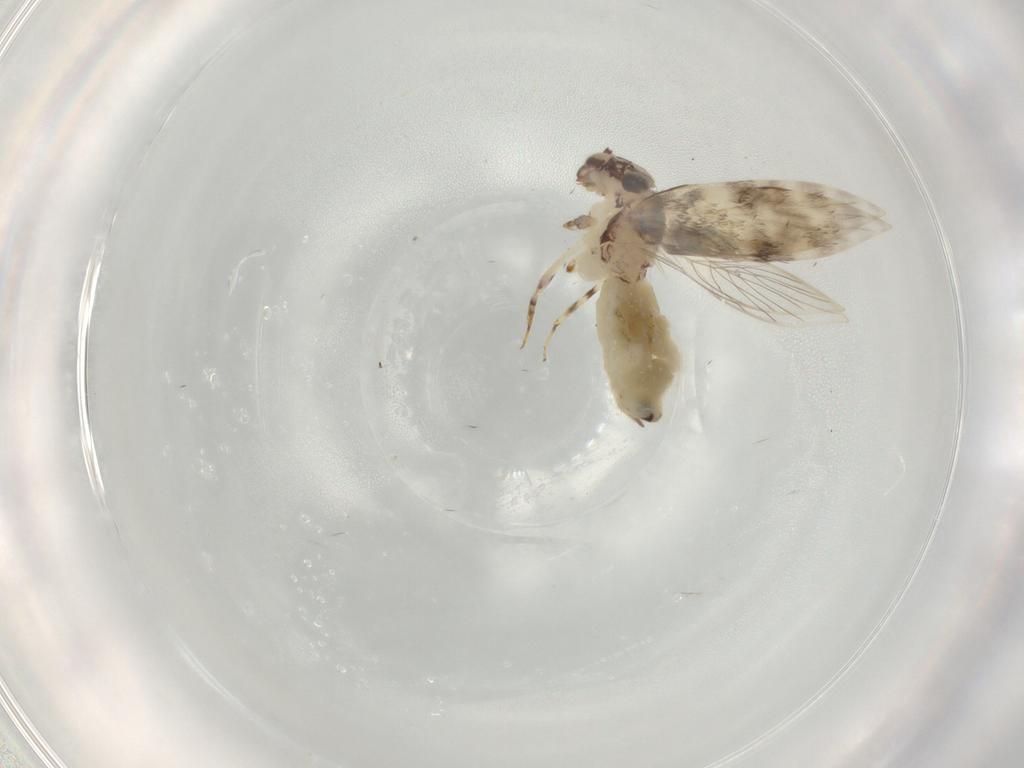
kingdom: Animalia
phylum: Arthropoda
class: Insecta
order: Psocodea
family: Lepidopsocidae
